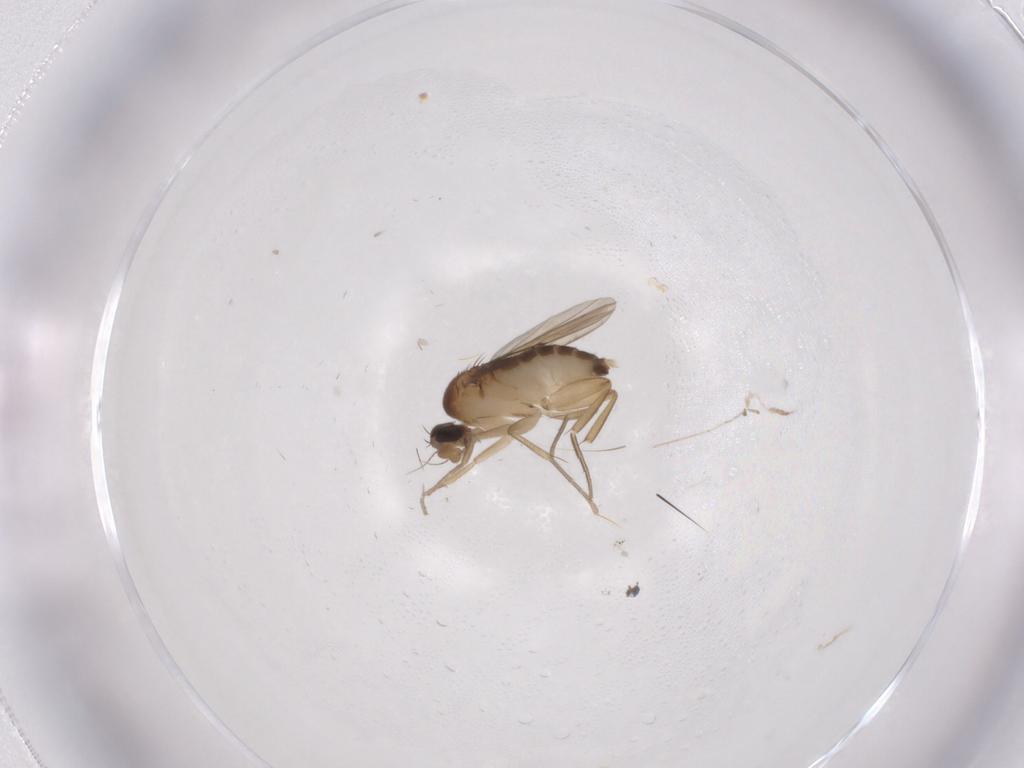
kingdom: Animalia
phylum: Arthropoda
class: Insecta
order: Diptera
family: Phoridae
